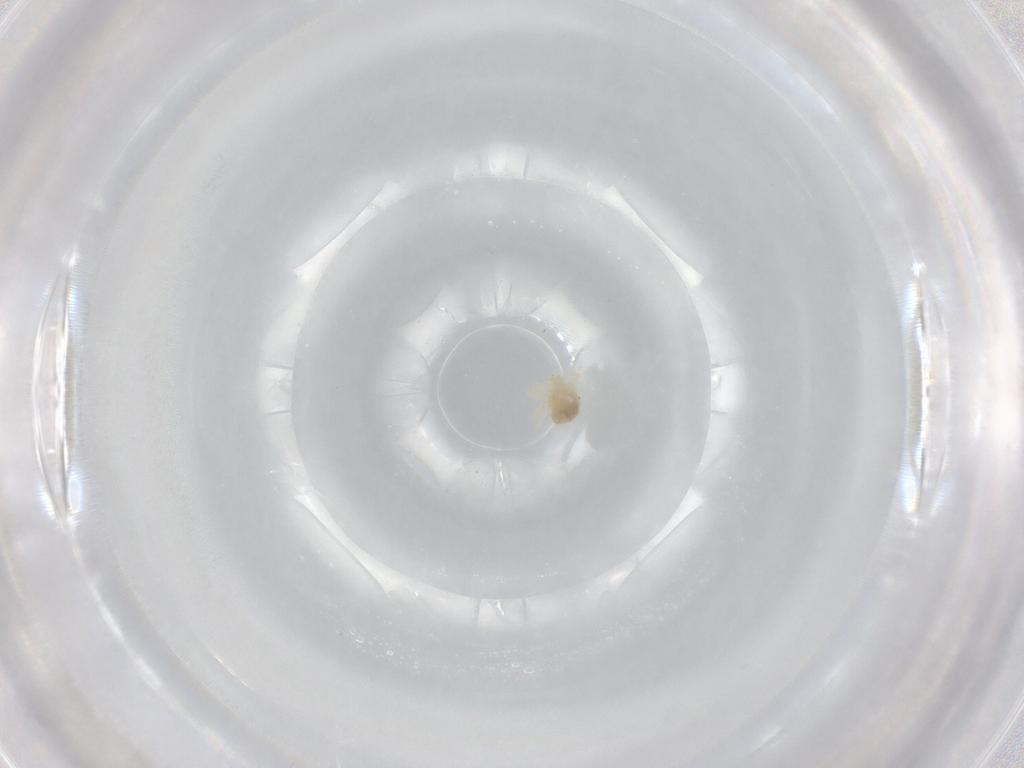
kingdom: Animalia
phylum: Arthropoda
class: Arachnida
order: Trombidiformes
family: Anystidae
